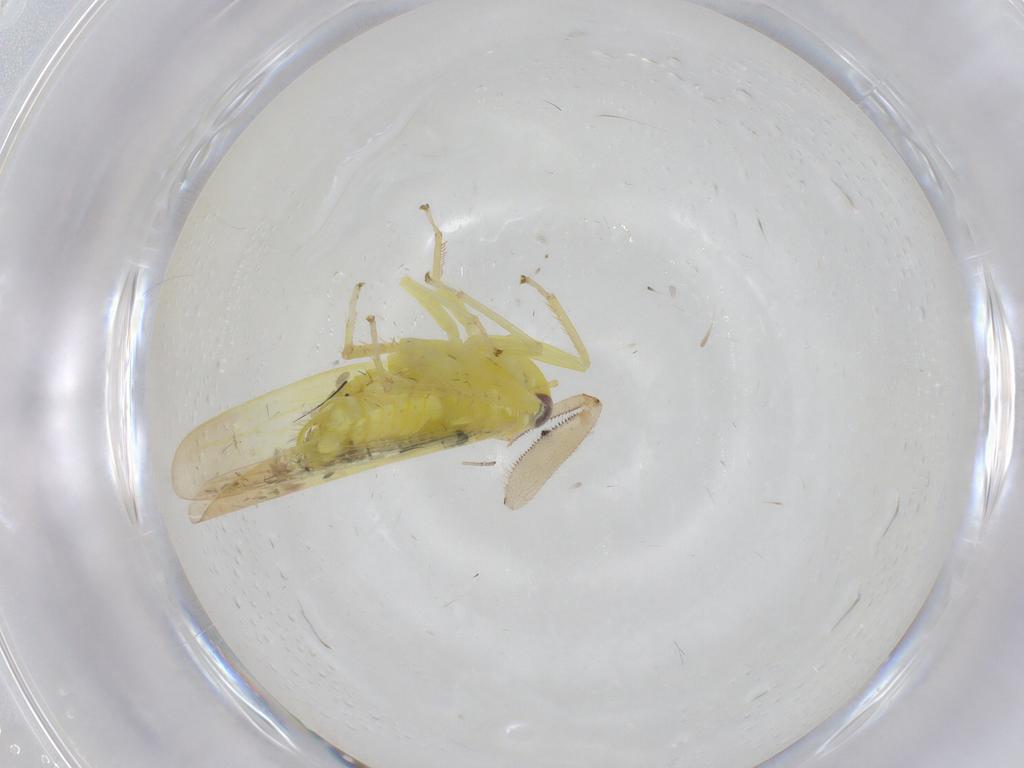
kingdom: Animalia
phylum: Arthropoda
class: Insecta
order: Hemiptera
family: Cicadellidae
